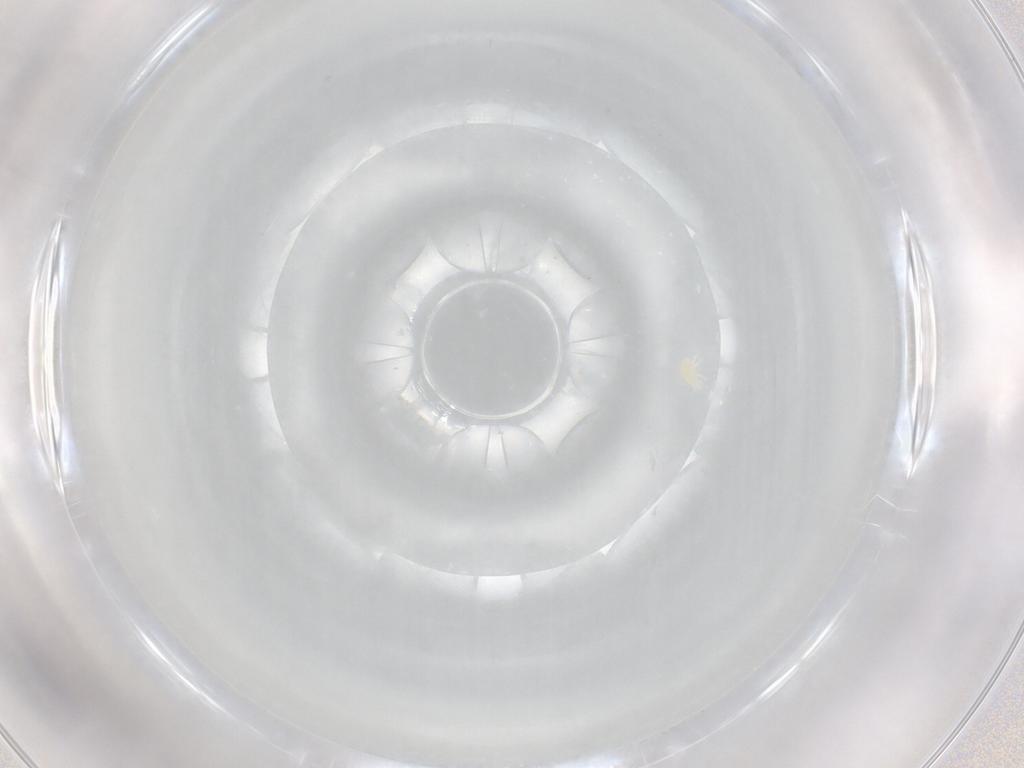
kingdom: Animalia
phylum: Arthropoda
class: Arachnida
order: Trombidiformes
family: Stigmaeidae
